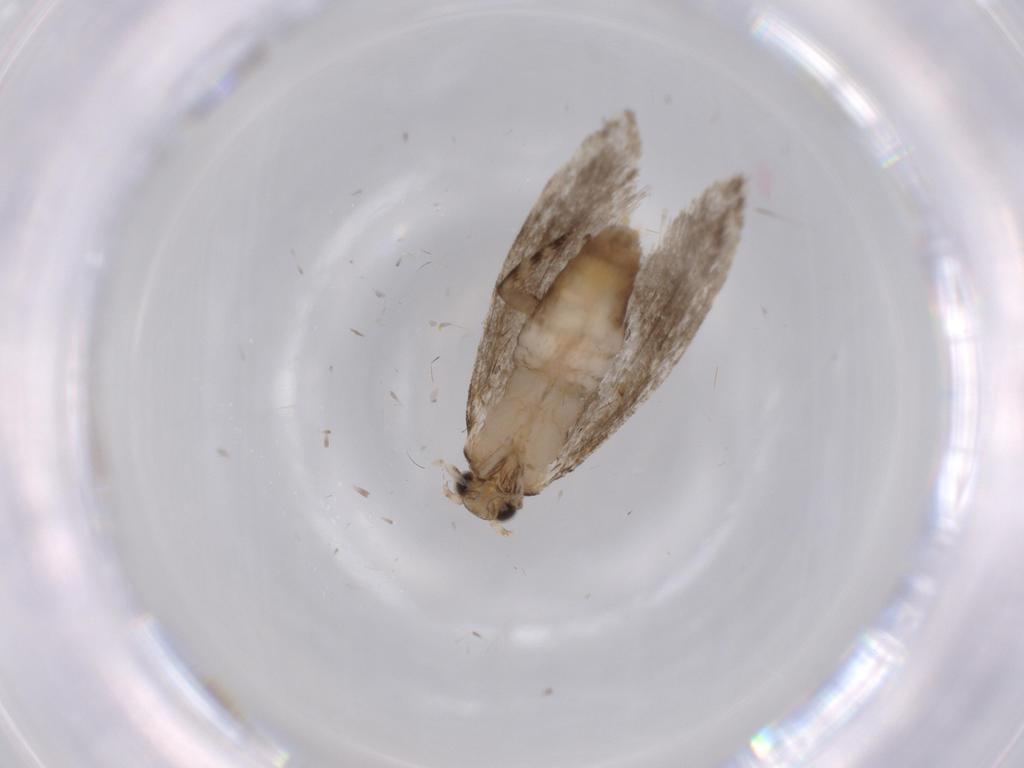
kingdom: Animalia
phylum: Arthropoda
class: Insecta
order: Lepidoptera
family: Tineidae
